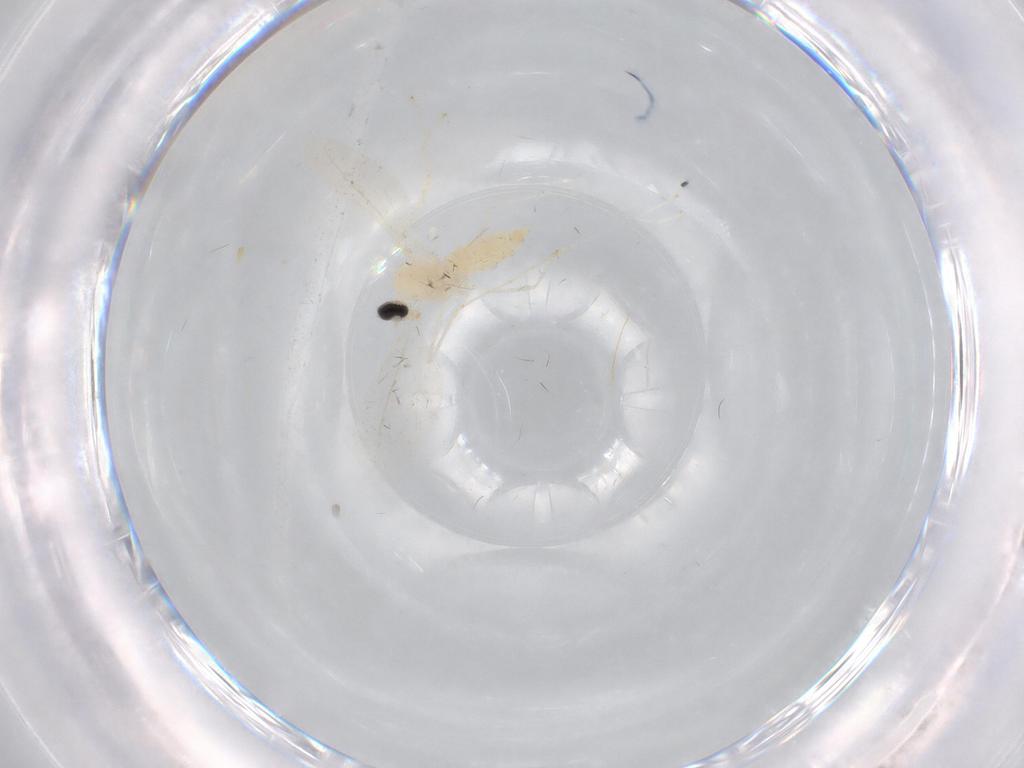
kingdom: Animalia
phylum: Arthropoda
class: Insecta
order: Diptera
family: Cecidomyiidae
